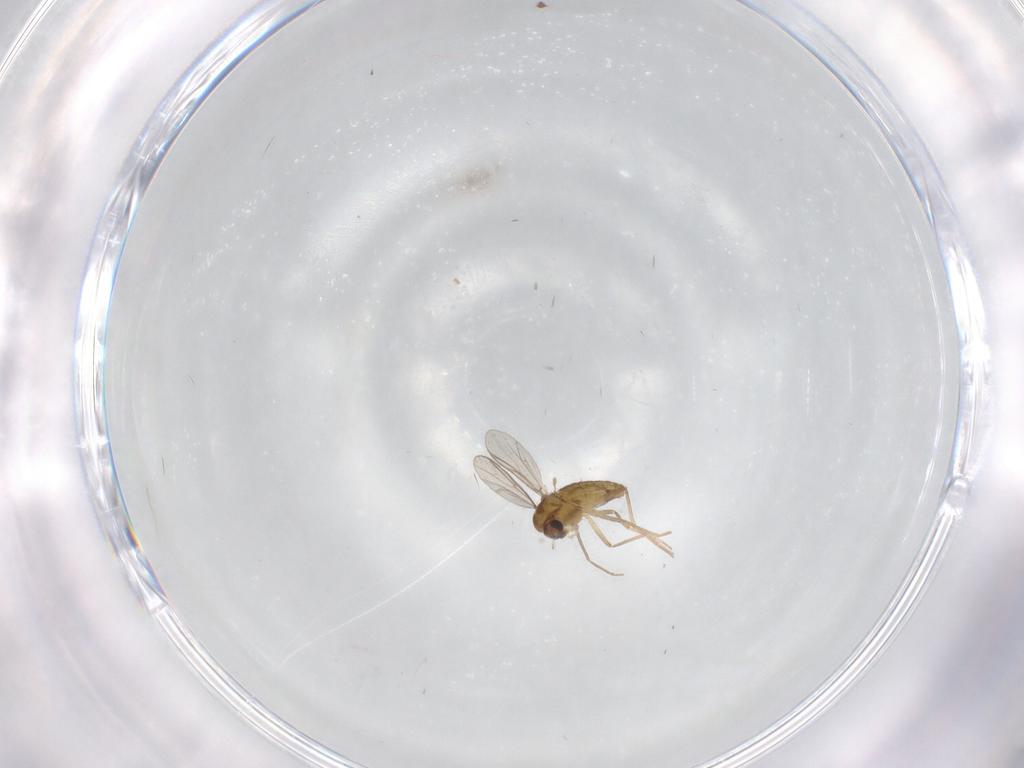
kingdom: Animalia
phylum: Arthropoda
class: Insecta
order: Diptera
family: Chironomidae
